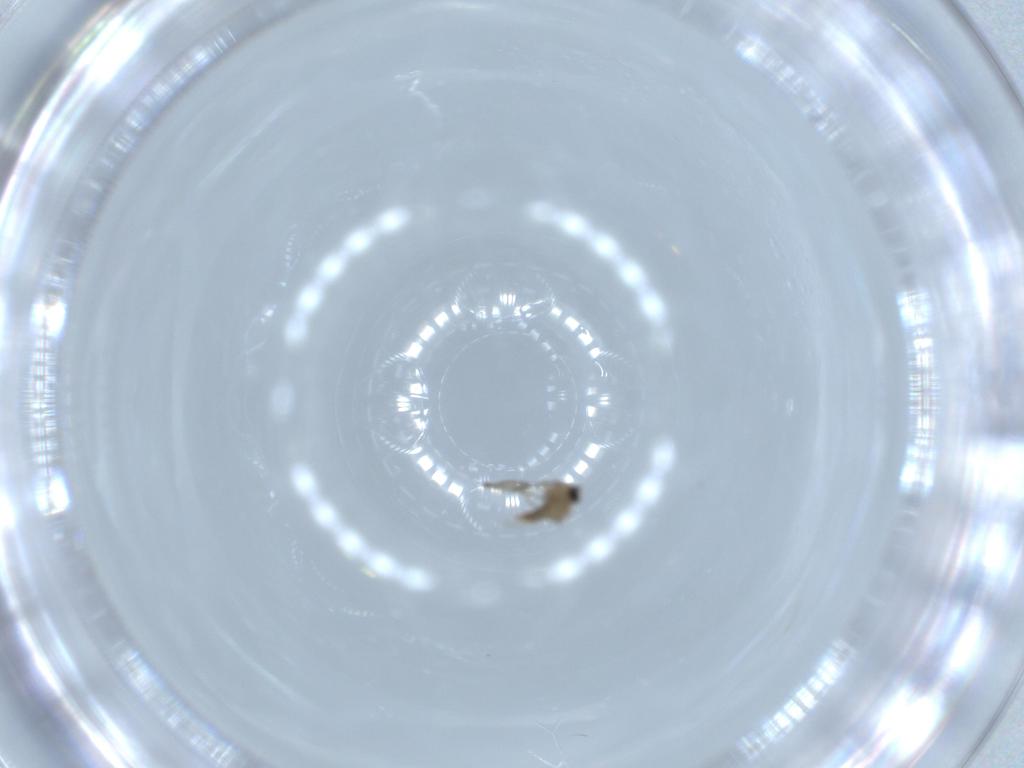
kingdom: Animalia
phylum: Arthropoda
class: Insecta
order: Diptera
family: Cecidomyiidae
